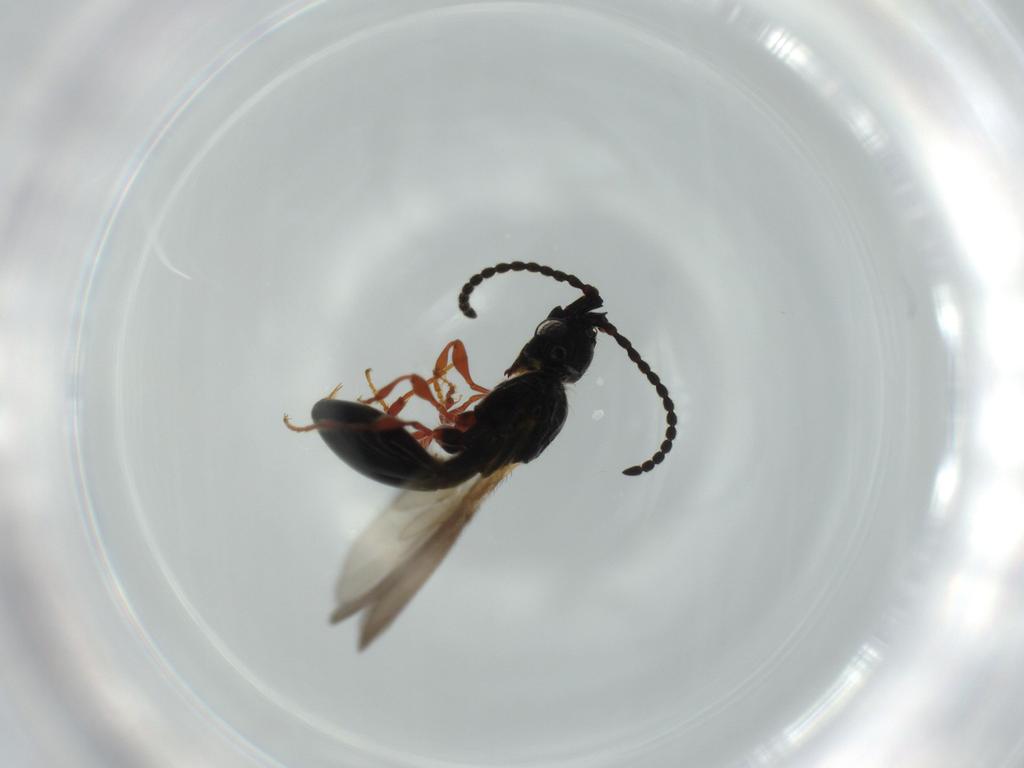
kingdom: Animalia
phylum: Arthropoda
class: Insecta
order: Hymenoptera
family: Diapriidae
